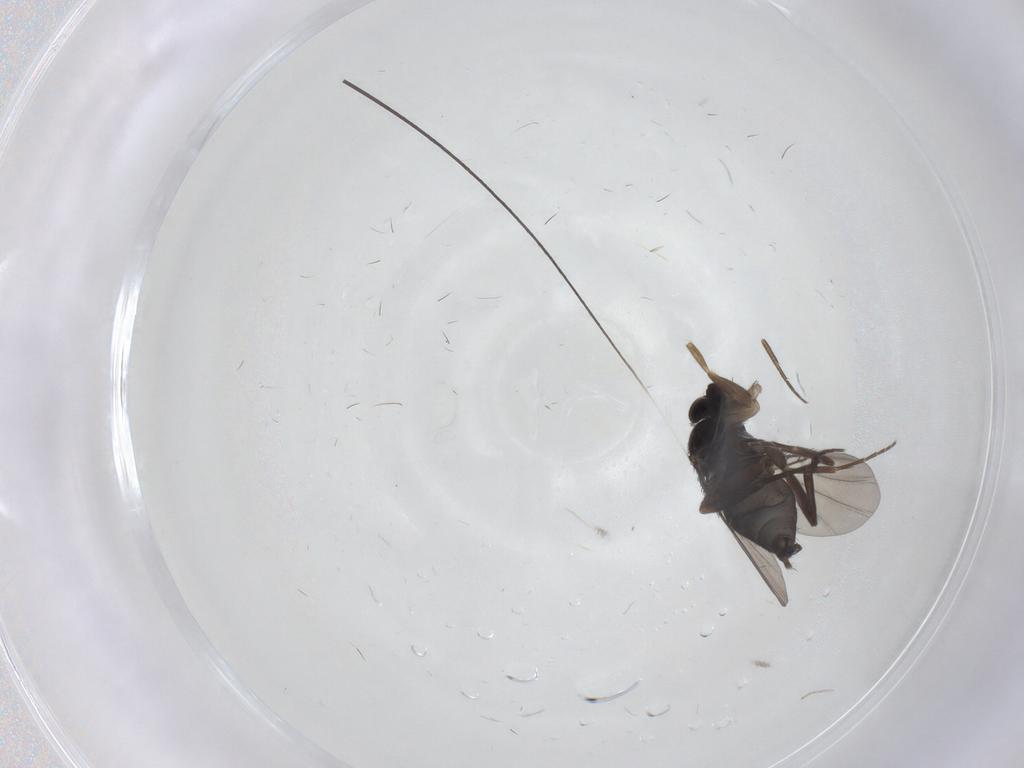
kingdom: Animalia
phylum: Arthropoda
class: Insecta
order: Diptera
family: Phoridae
